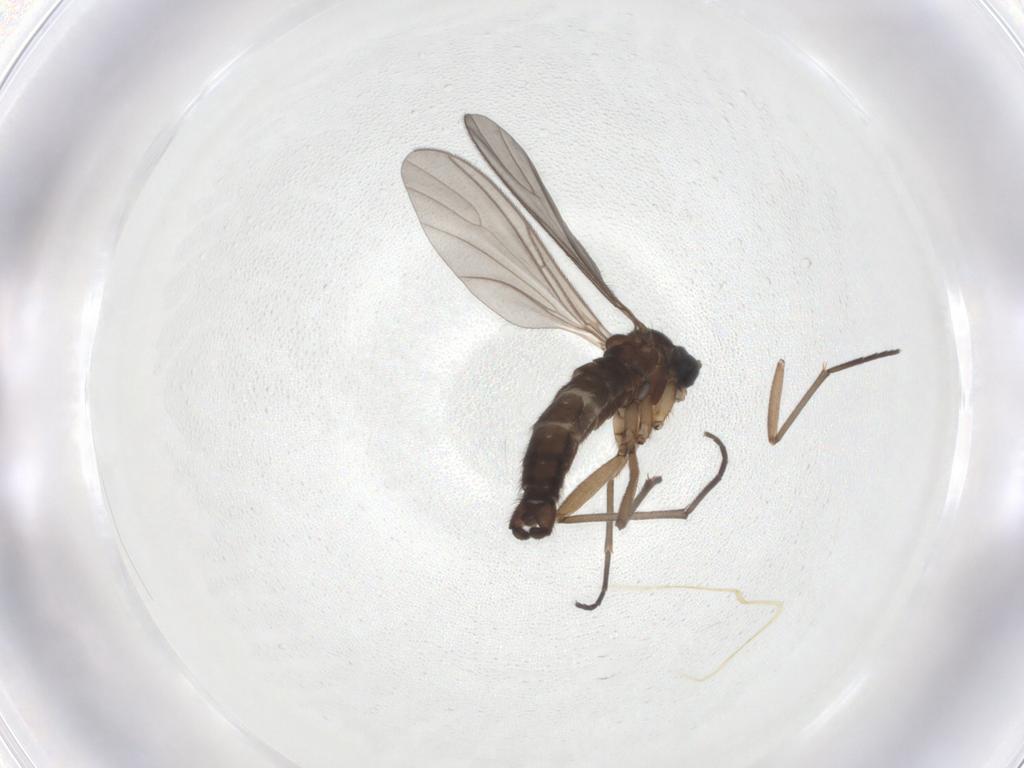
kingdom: Animalia
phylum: Arthropoda
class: Insecta
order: Diptera
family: Sciaridae
